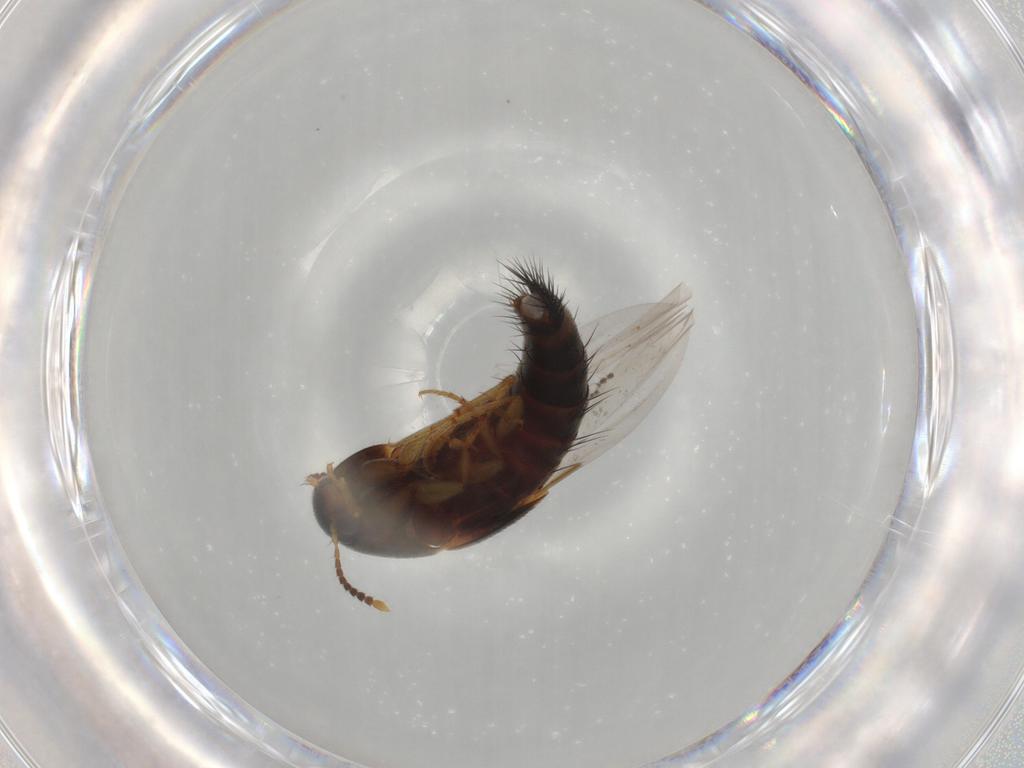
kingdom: Animalia
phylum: Arthropoda
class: Insecta
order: Coleoptera
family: Staphylinidae
